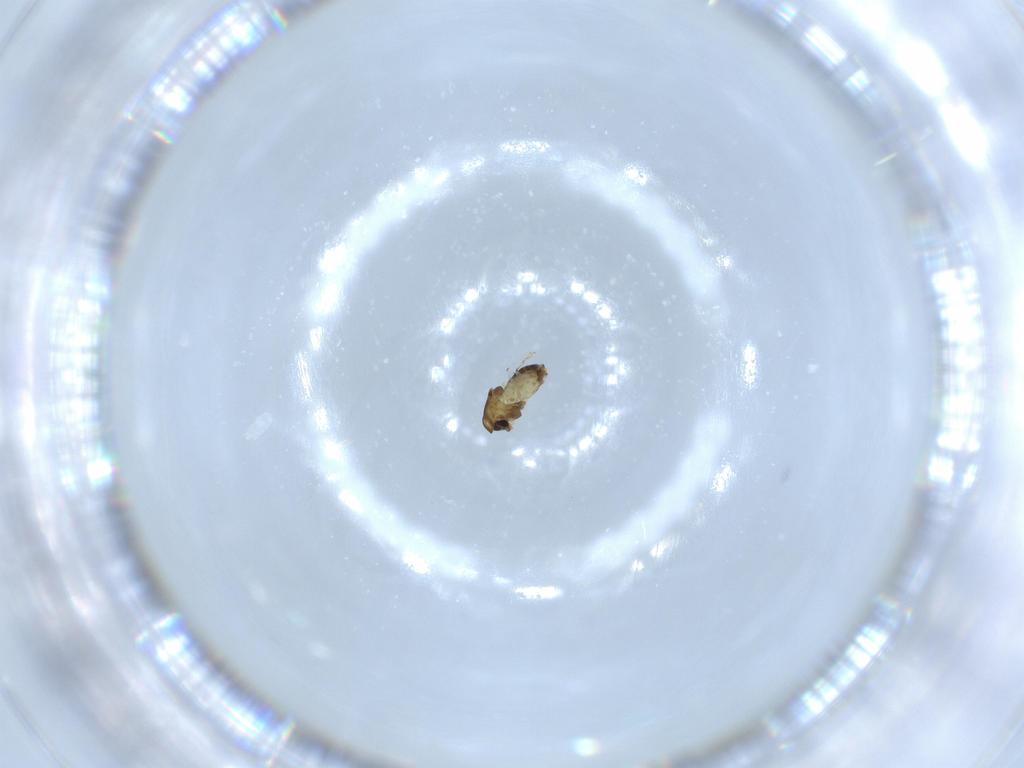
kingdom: Animalia
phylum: Arthropoda
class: Insecta
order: Diptera
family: Chironomidae
